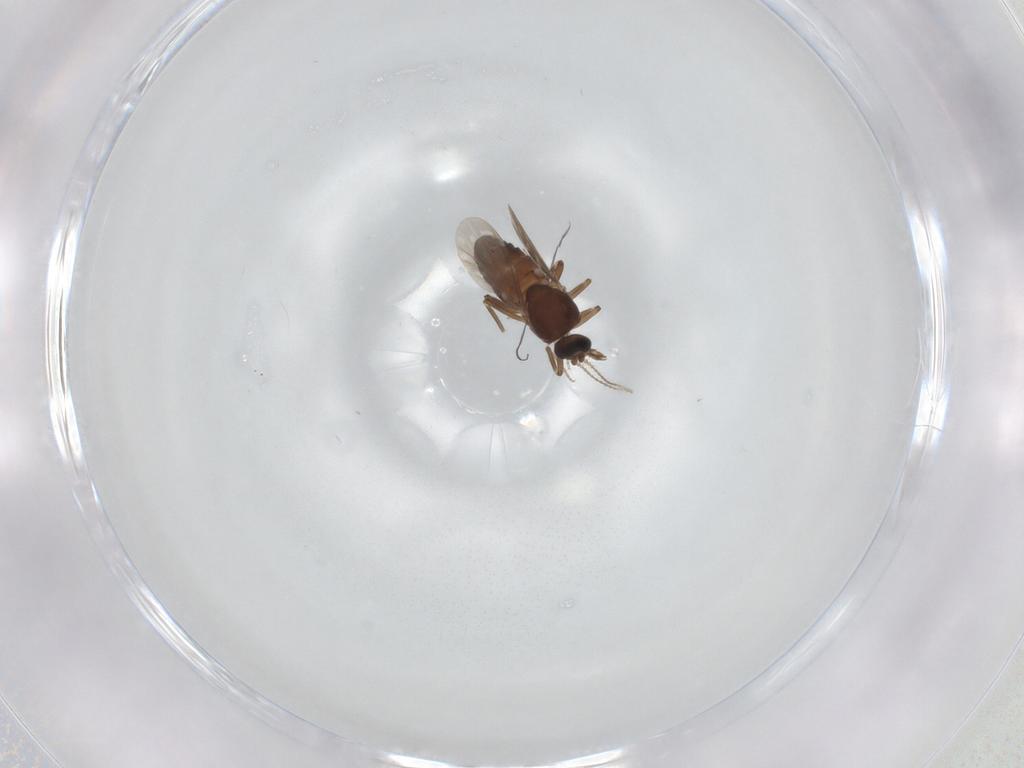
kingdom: Animalia
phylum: Arthropoda
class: Insecta
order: Diptera
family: Ceratopogonidae
